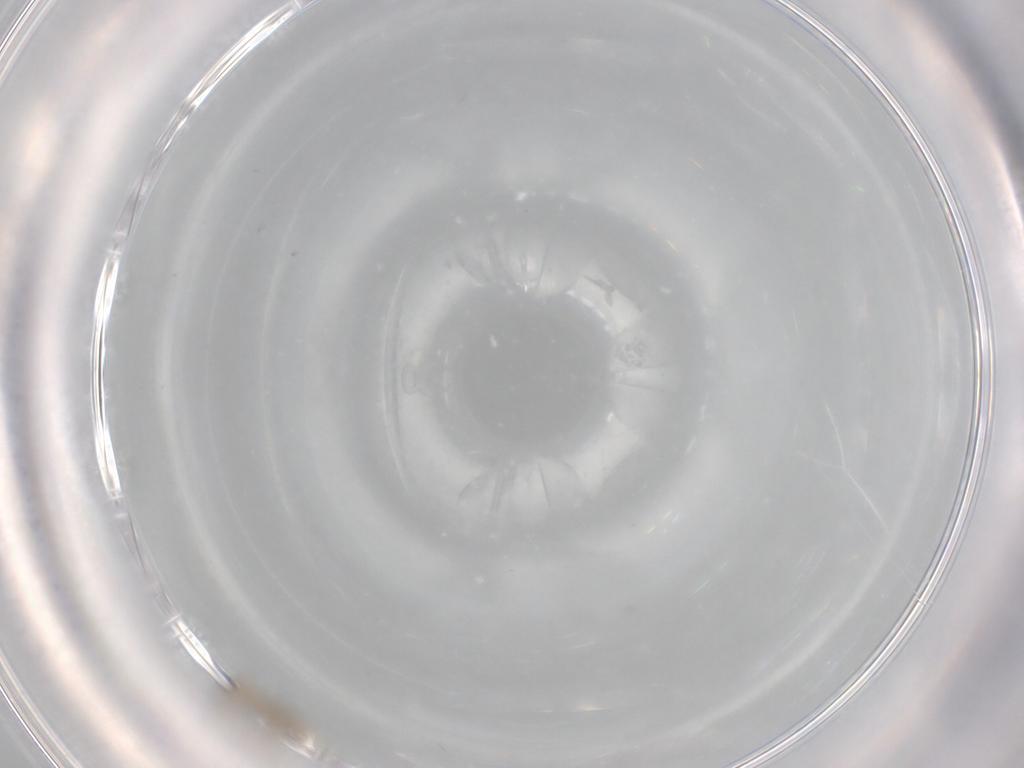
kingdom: Animalia
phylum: Arthropoda
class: Insecta
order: Diptera
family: Cecidomyiidae
